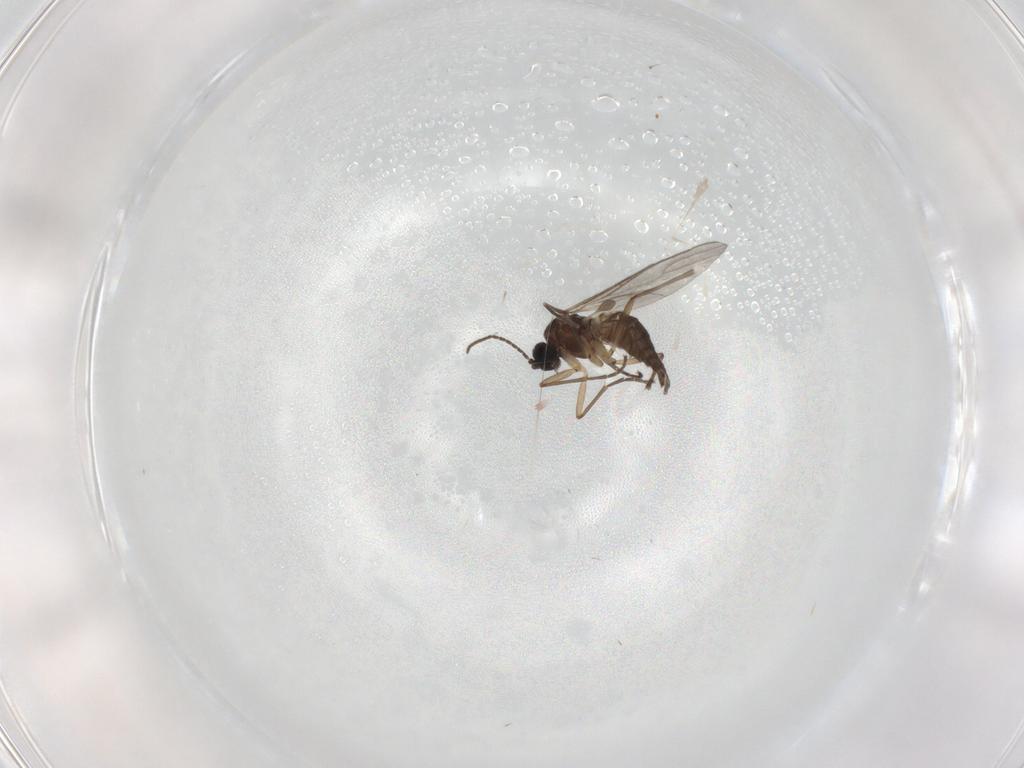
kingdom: Animalia
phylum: Arthropoda
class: Insecta
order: Diptera
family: Sciaridae
